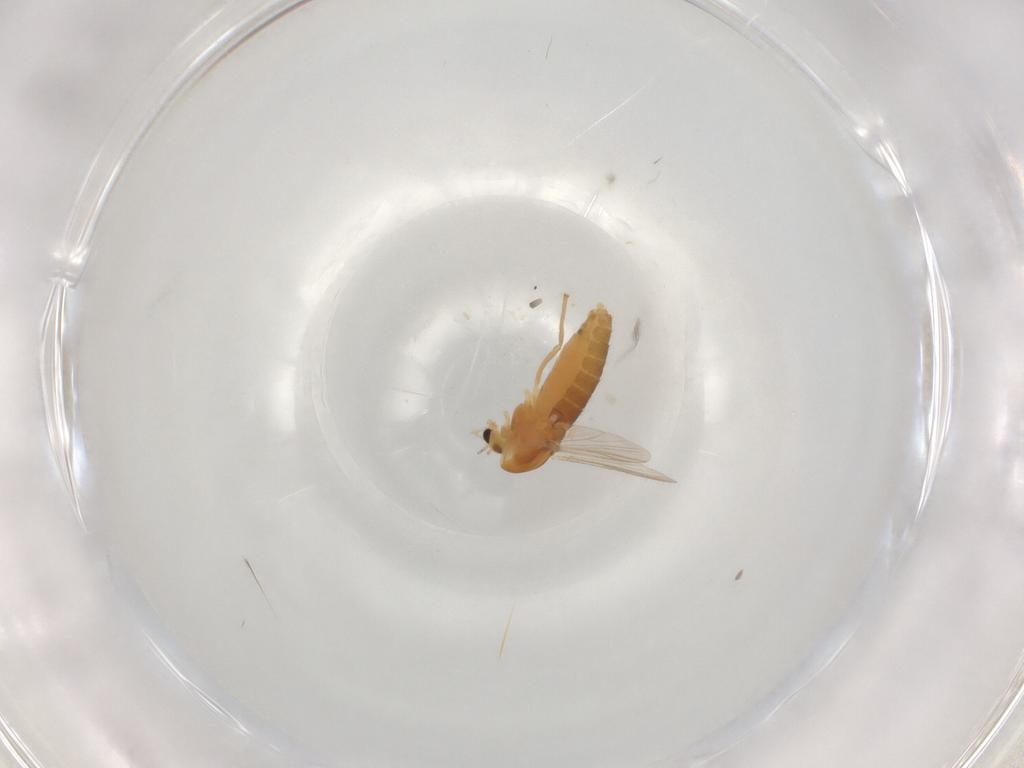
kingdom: Animalia
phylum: Arthropoda
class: Insecta
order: Diptera
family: Chironomidae
